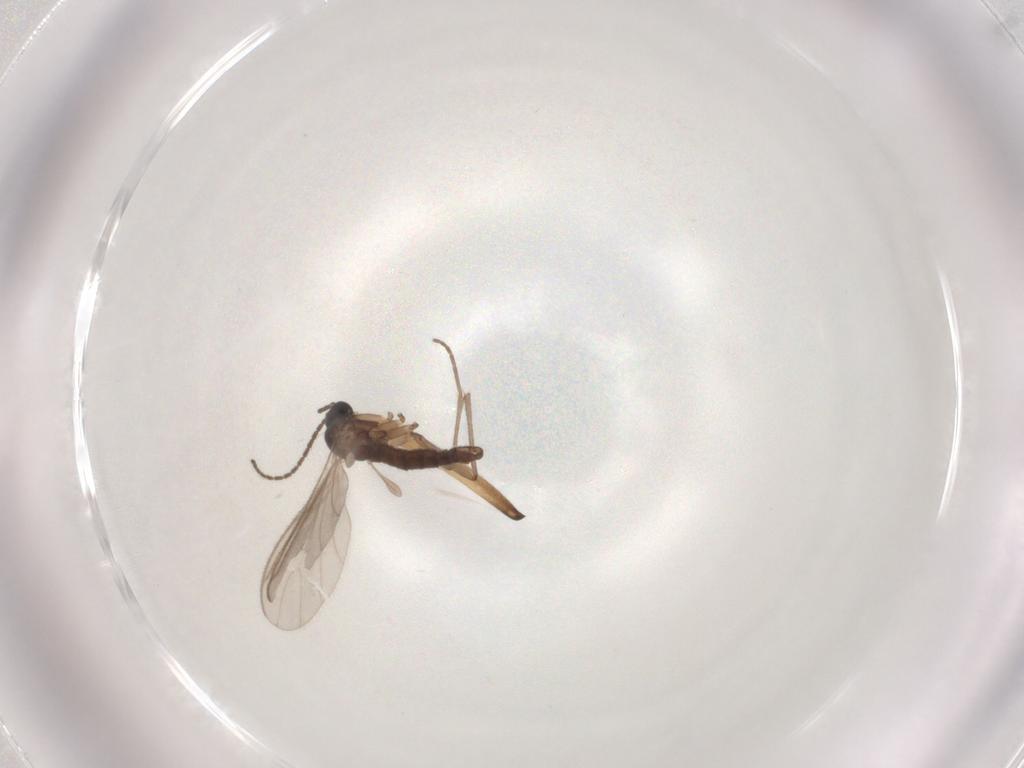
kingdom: Animalia
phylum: Arthropoda
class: Insecta
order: Diptera
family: Sciaridae
